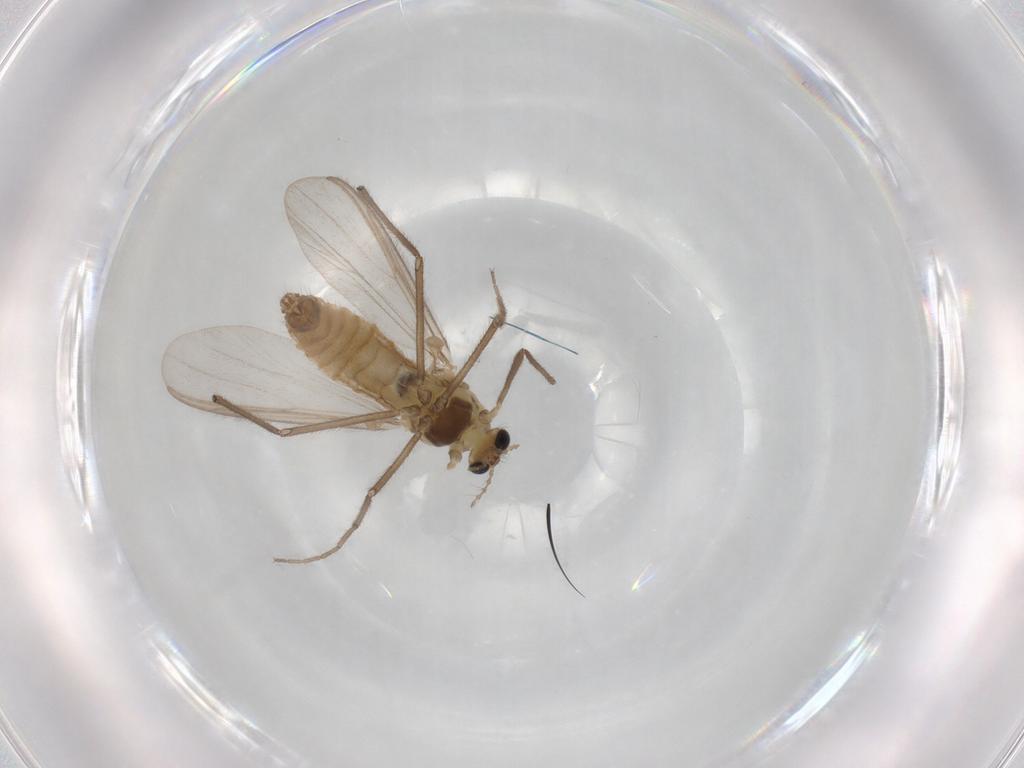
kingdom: Animalia
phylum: Arthropoda
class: Insecta
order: Diptera
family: Chironomidae
